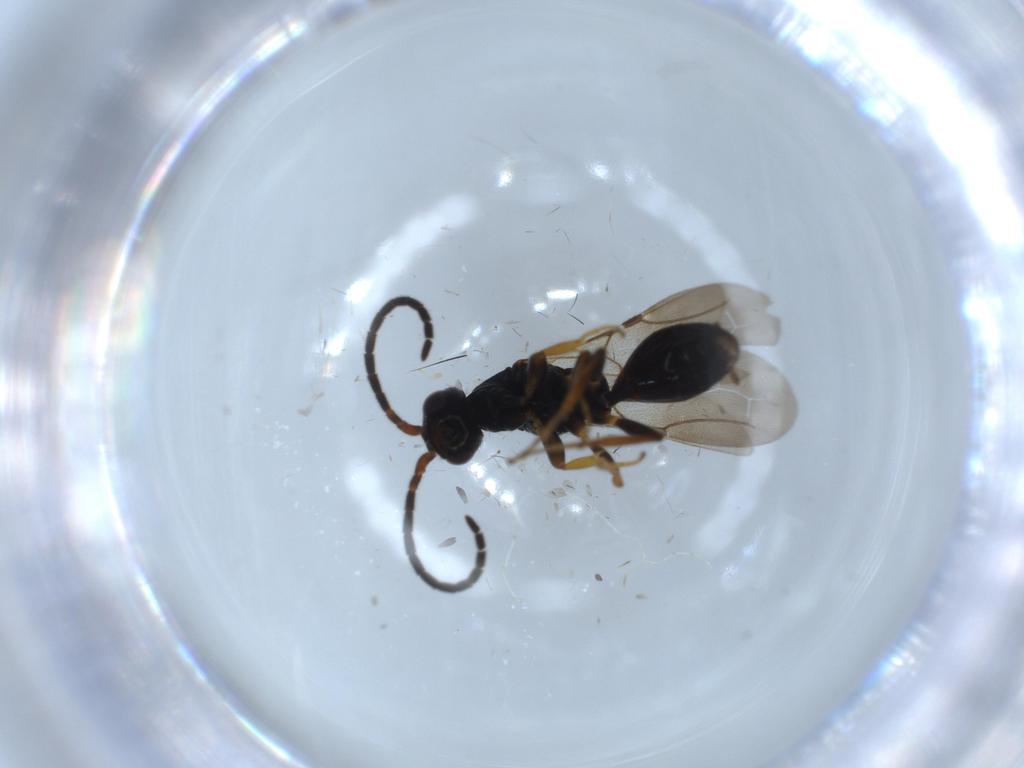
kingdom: Animalia
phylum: Arthropoda
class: Insecta
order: Hymenoptera
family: Bethylidae
